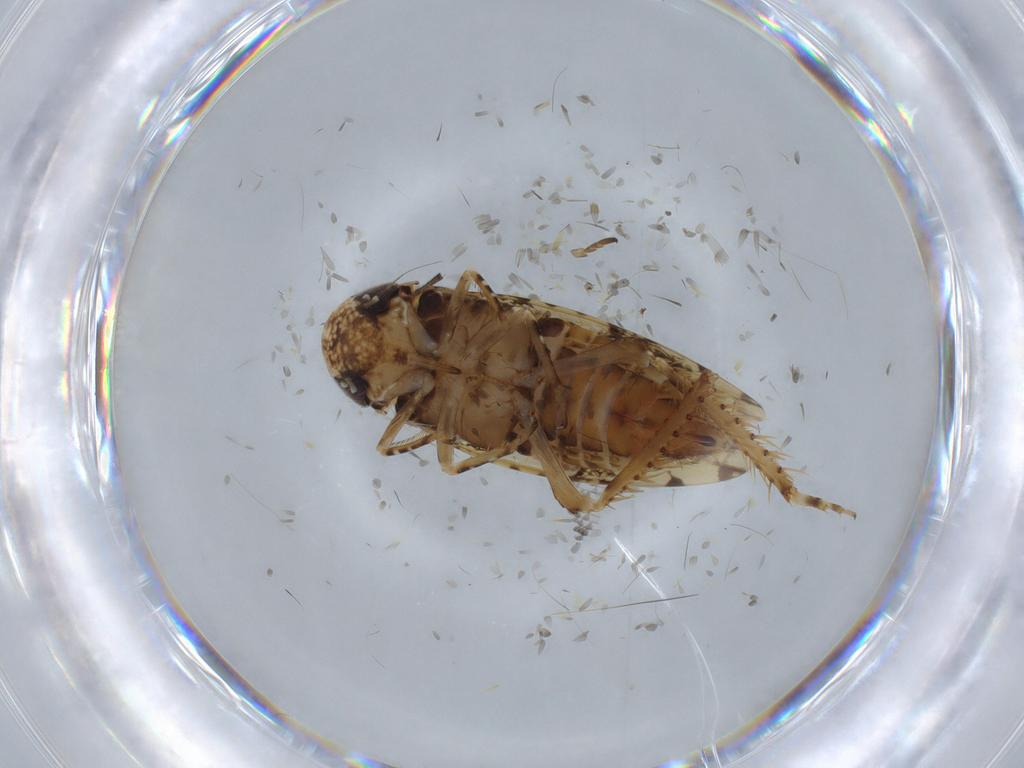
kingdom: Animalia
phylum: Arthropoda
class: Insecta
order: Hemiptera
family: Cicadellidae
